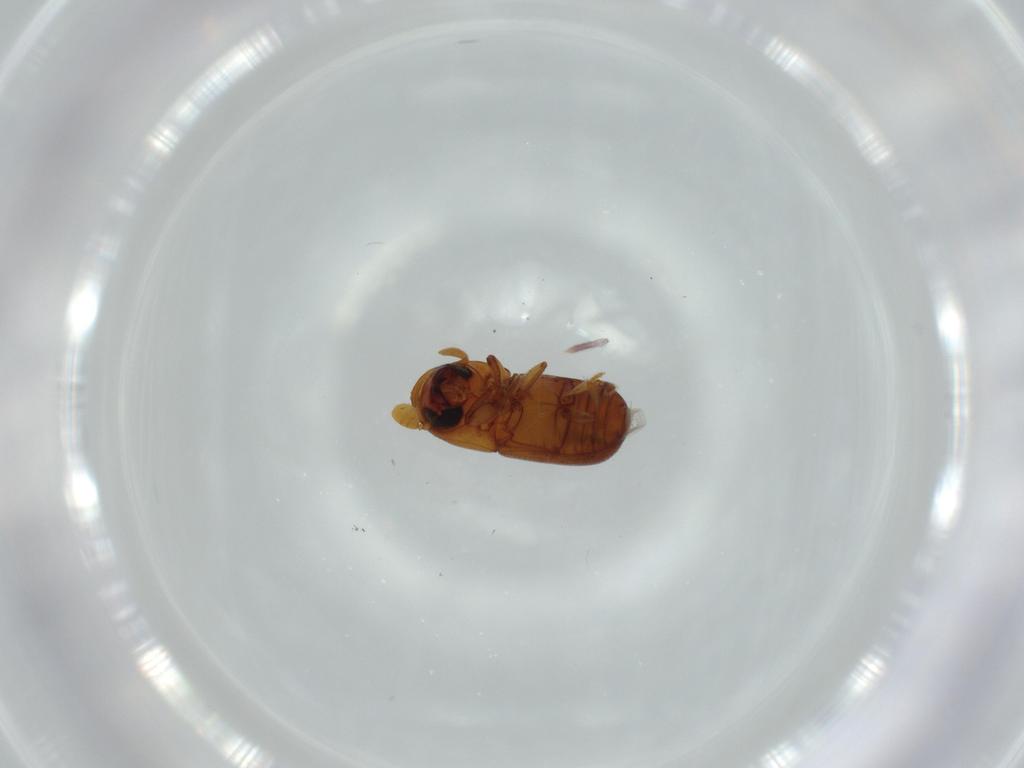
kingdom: Animalia
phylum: Arthropoda
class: Insecta
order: Coleoptera
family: Curculionidae
